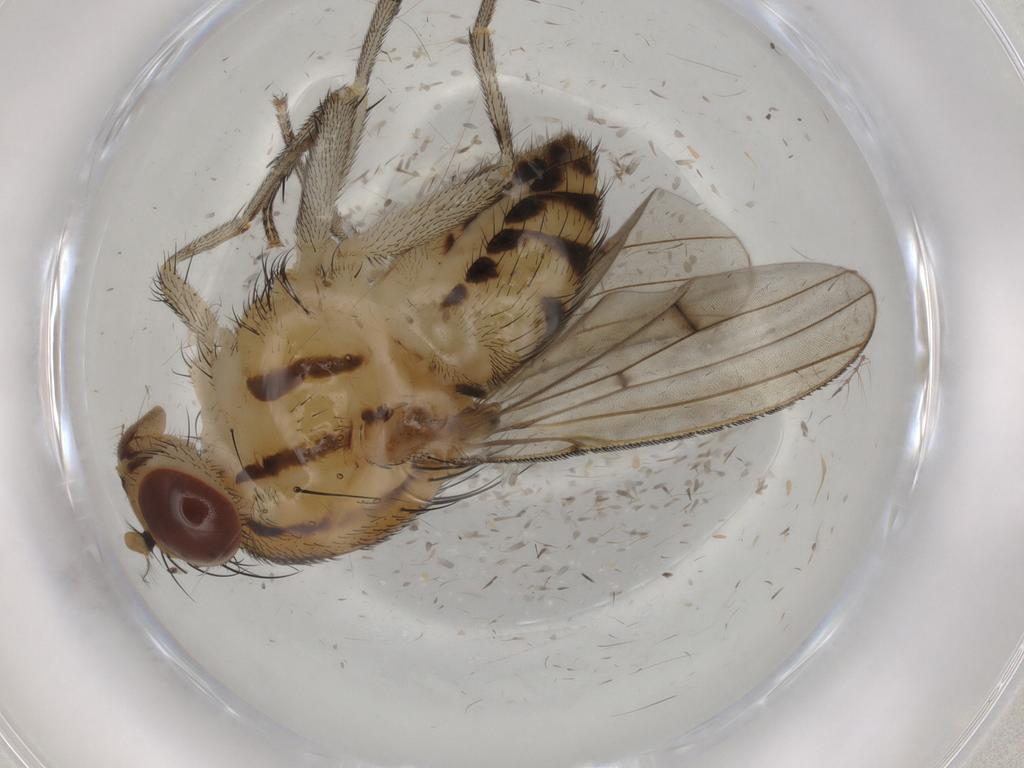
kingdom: Animalia
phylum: Arthropoda
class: Insecta
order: Diptera
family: Lauxaniidae
